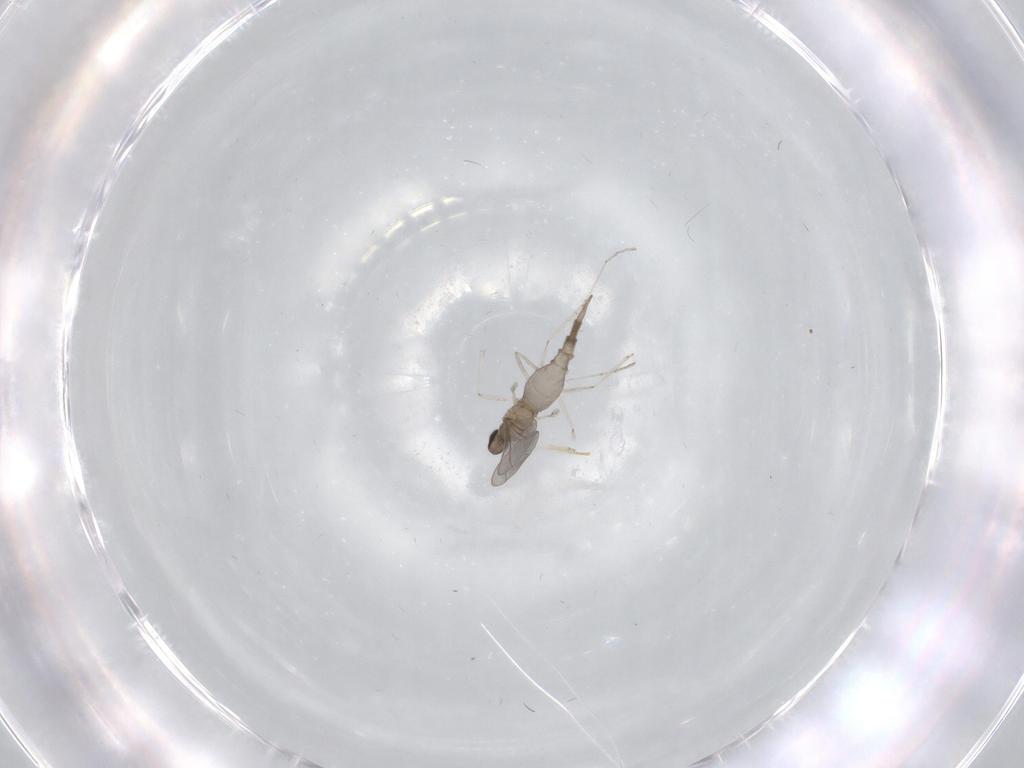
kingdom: Animalia
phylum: Arthropoda
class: Insecta
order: Diptera
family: Cecidomyiidae
